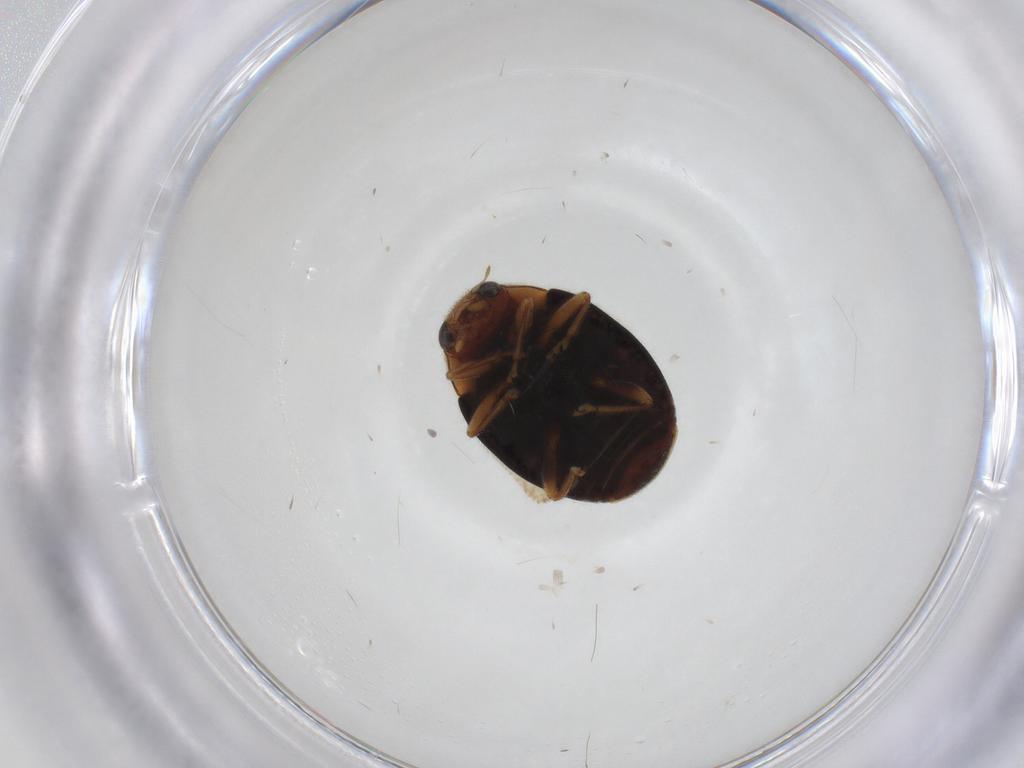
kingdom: Animalia
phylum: Arthropoda
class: Insecta
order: Coleoptera
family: Coccinellidae
